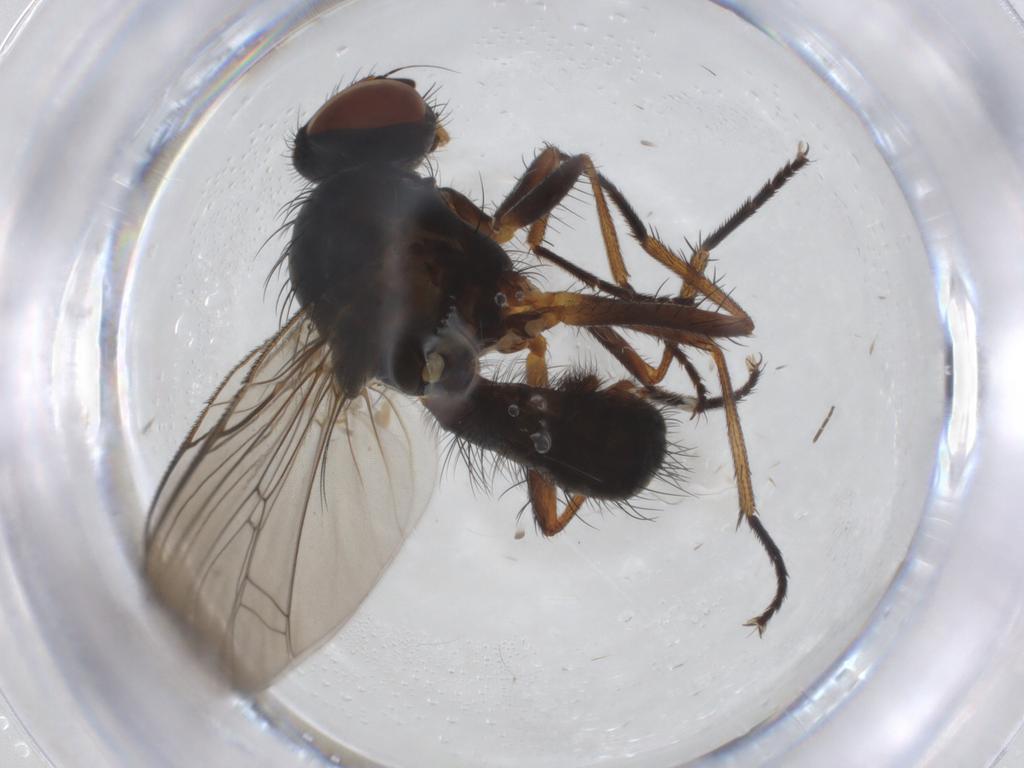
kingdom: Animalia
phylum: Arthropoda
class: Insecta
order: Diptera
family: Anthomyiidae
